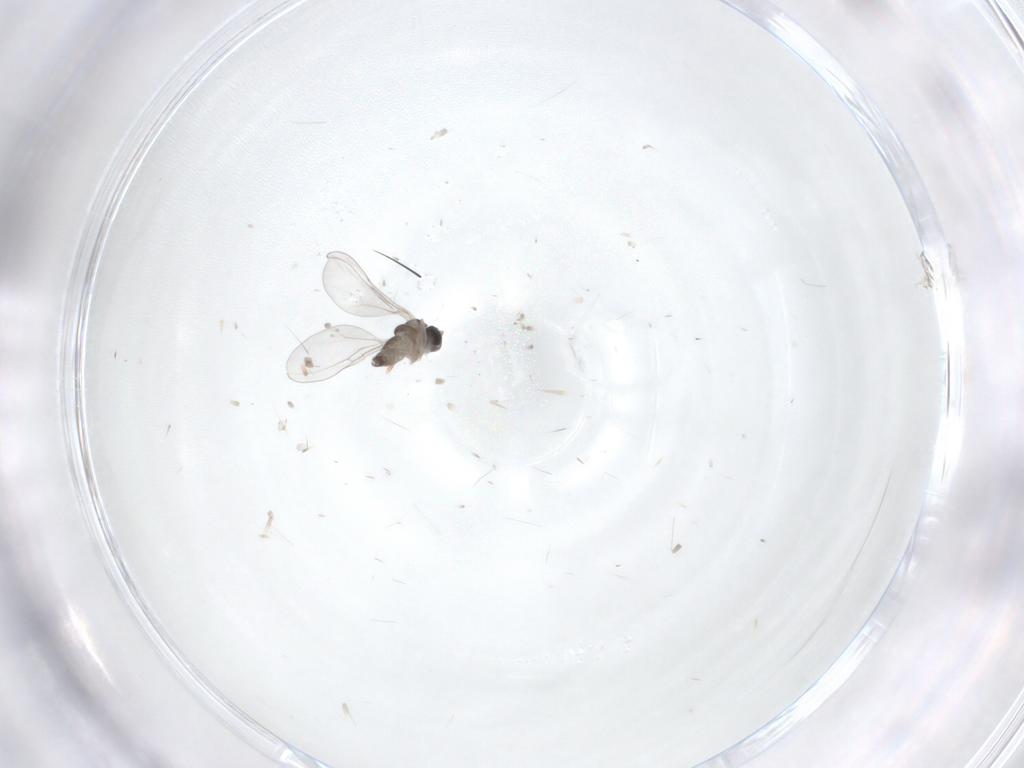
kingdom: Animalia
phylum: Arthropoda
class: Insecta
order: Diptera
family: Cecidomyiidae
